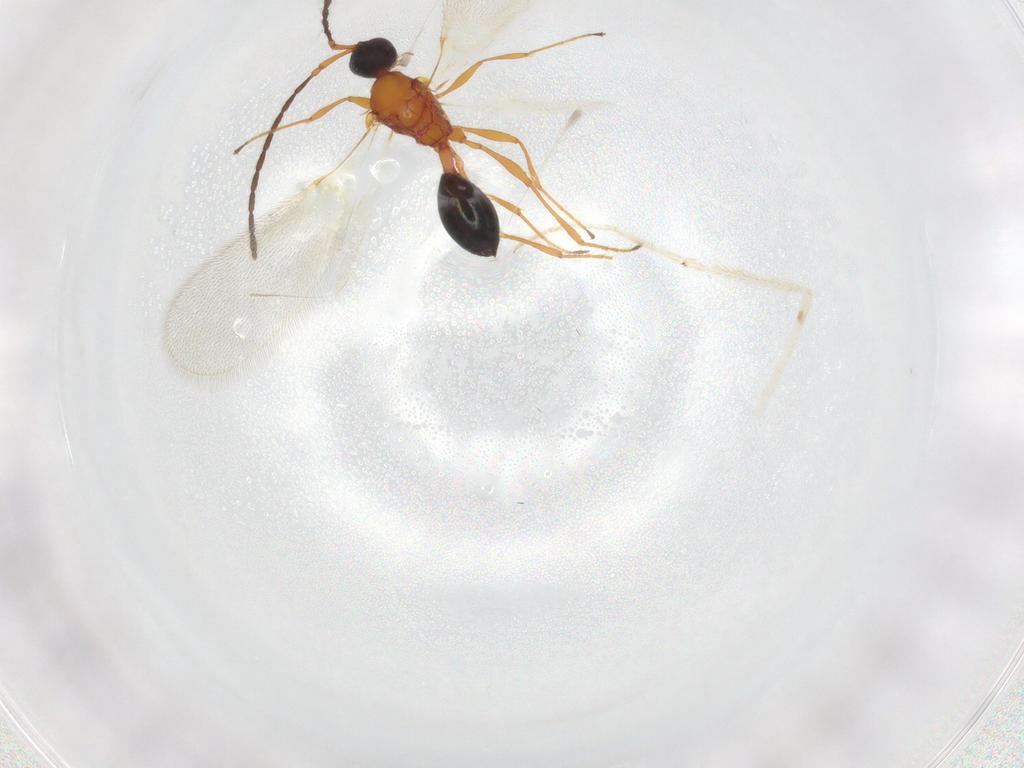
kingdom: Animalia
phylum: Arthropoda
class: Insecta
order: Hymenoptera
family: Diapriidae
